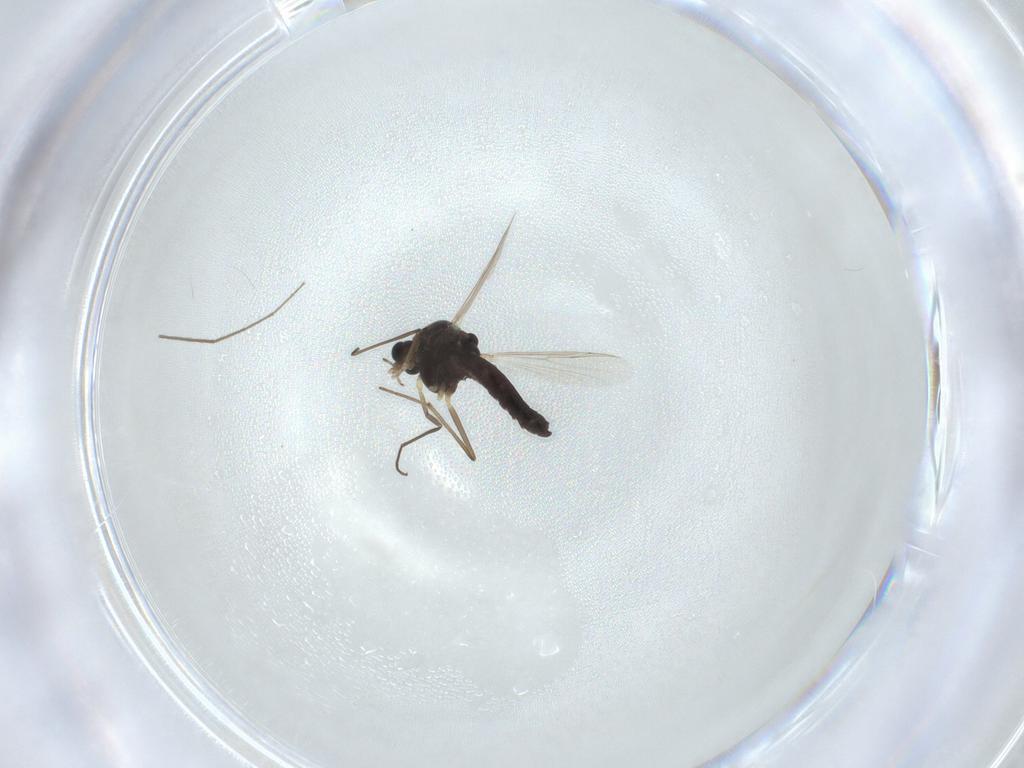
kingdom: Animalia
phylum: Arthropoda
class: Insecta
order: Diptera
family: Chironomidae
